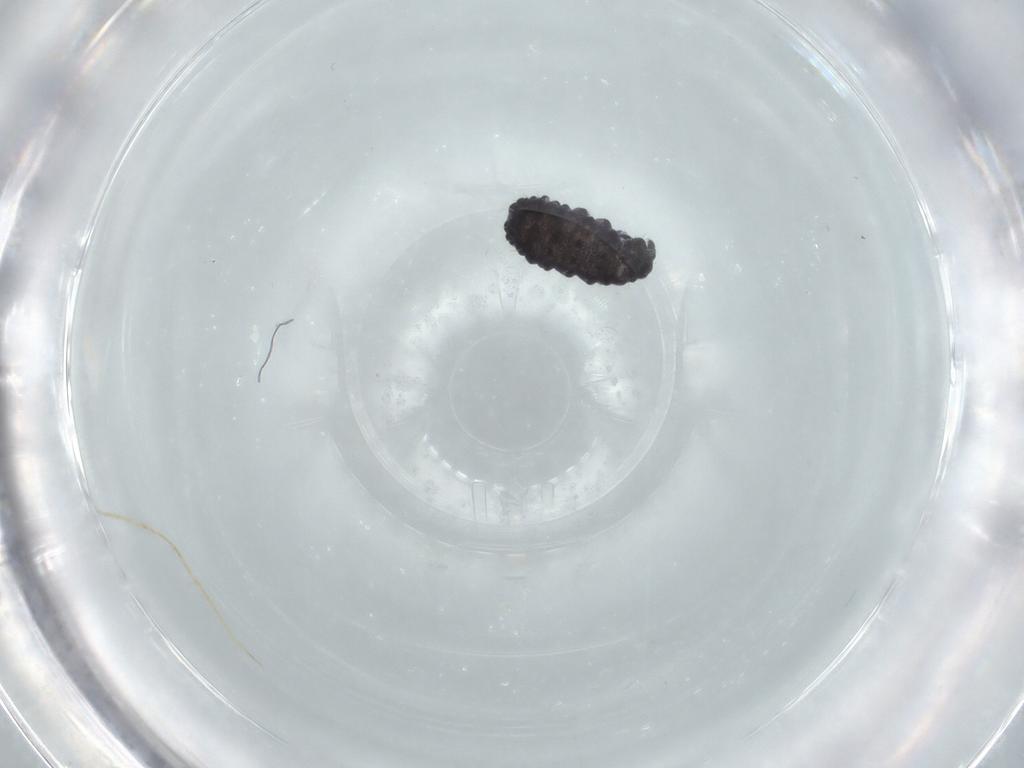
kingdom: Animalia
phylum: Arthropoda
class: Collembola
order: Poduromorpha
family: Neanuridae
